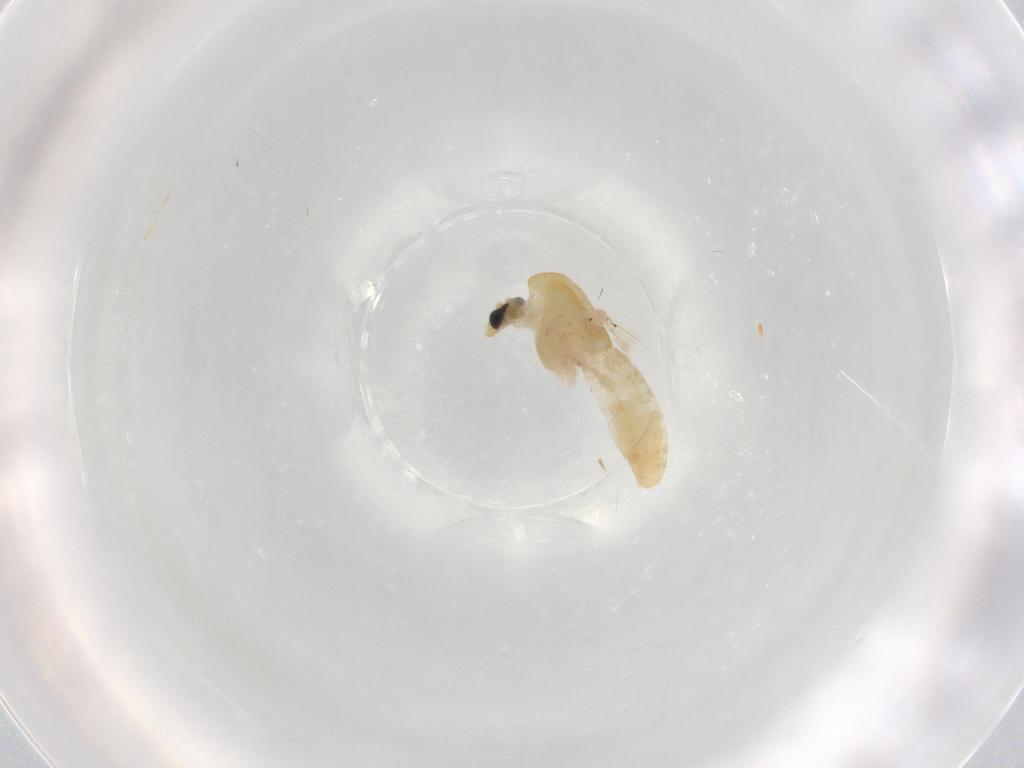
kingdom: Animalia
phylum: Arthropoda
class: Insecta
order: Diptera
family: Chironomidae
